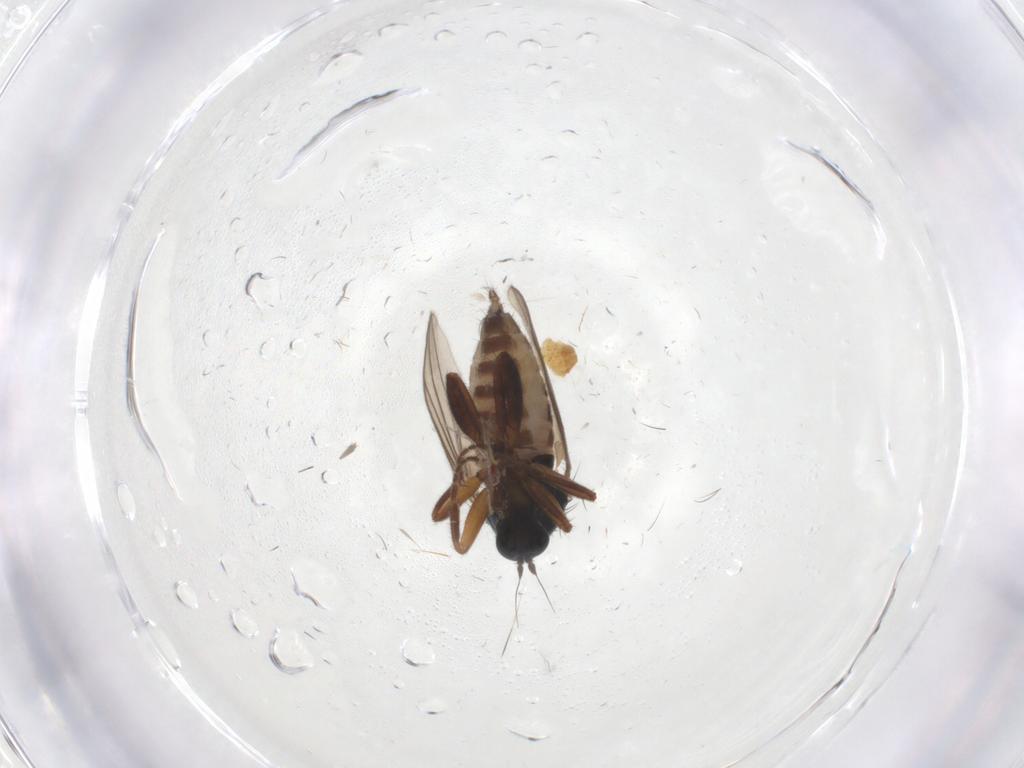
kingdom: Animalia
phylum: Arthropoda
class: Insecta
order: Diptera
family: Hybotidae
